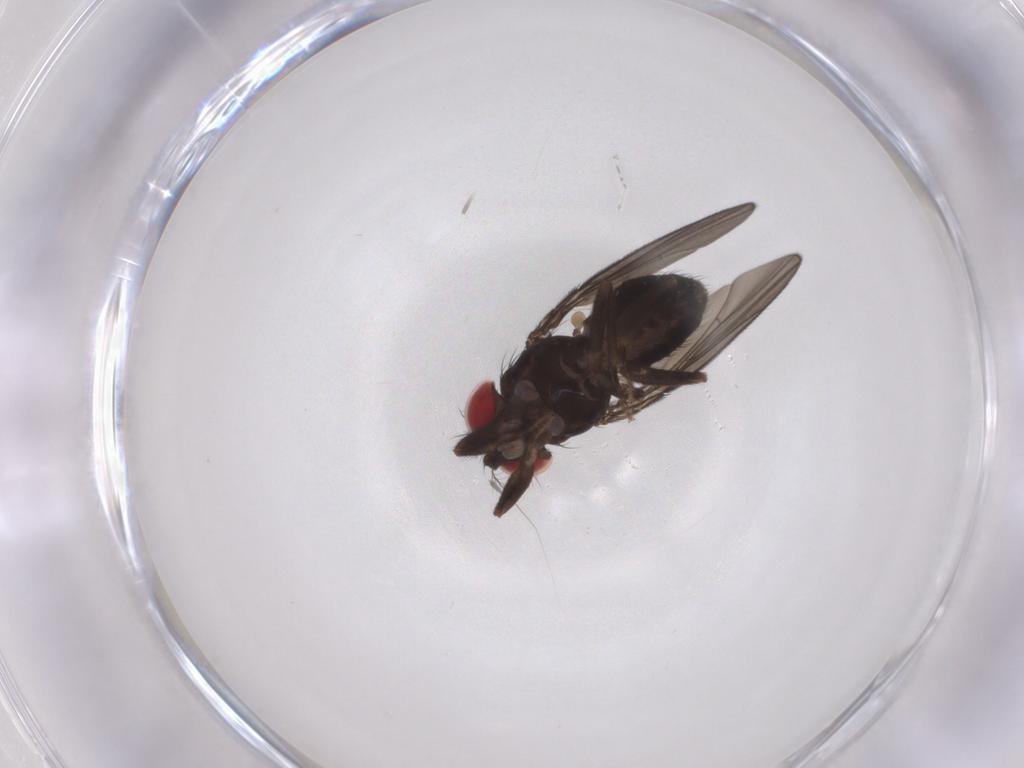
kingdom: Animalia
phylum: Arthropoda
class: Insecta
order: Diptera
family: Drosophilidae
